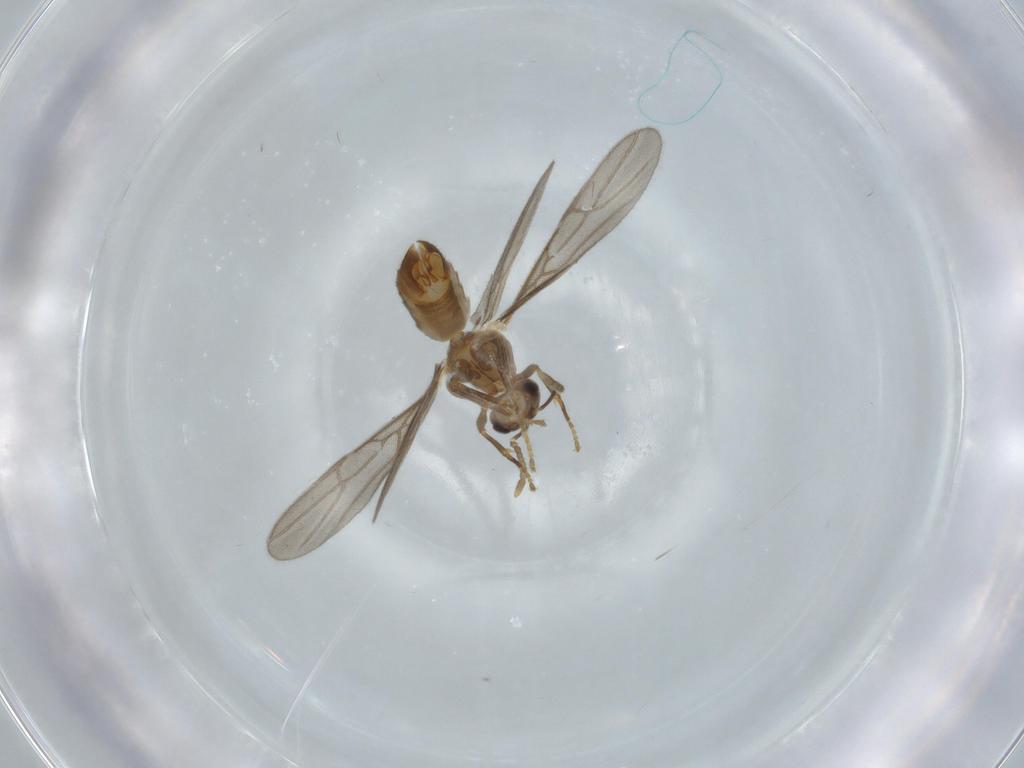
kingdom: Animalia
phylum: Arthropoda
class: Insecta
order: Hymenoptera
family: Formicidae
